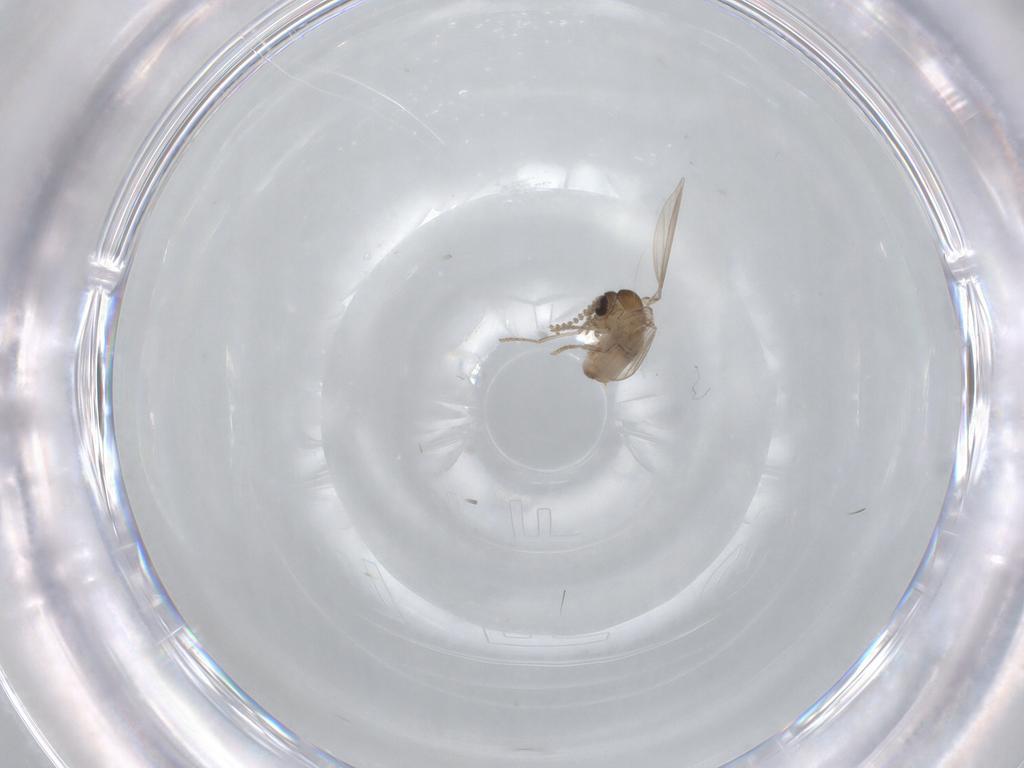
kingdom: Animalia
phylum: Arthropoda
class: Insecta
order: Diptera
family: Psychodidae
